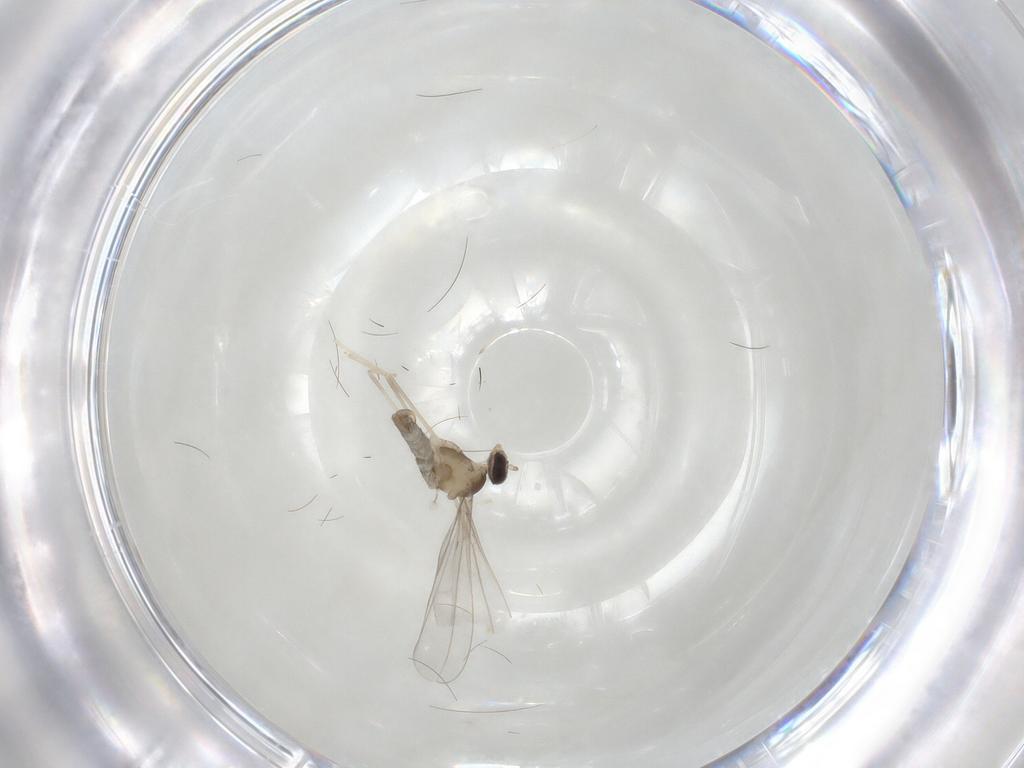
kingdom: Animalia
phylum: Arthropoda
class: Insecta
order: Diptera
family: Cecidomyiidae
